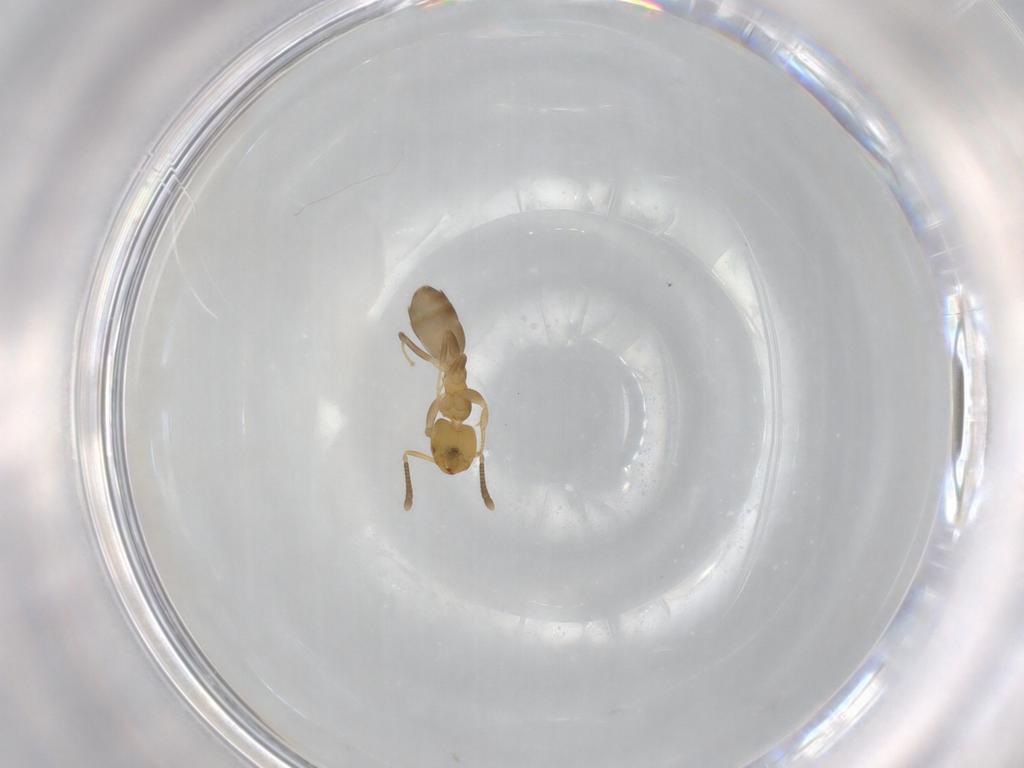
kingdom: Animalia
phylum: Arthropoda
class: Insecta
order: Hymenoptera
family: Formicidae
